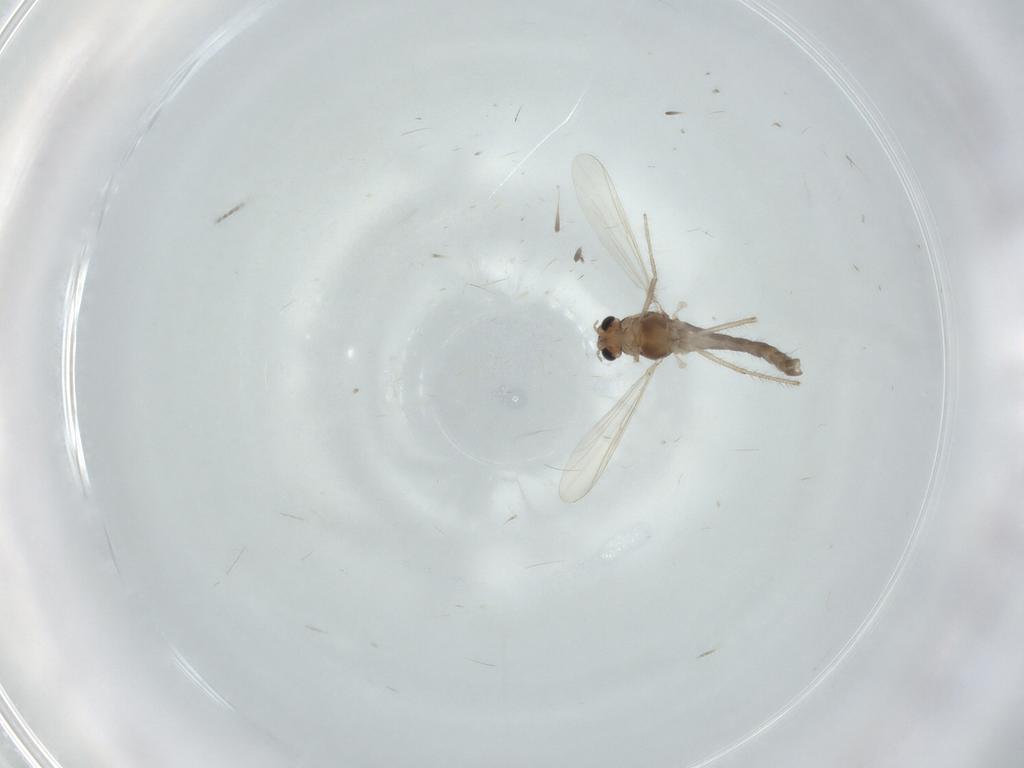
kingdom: Animalia
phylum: Arthropoda
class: Insecta
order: Diptera
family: Chironomidae
